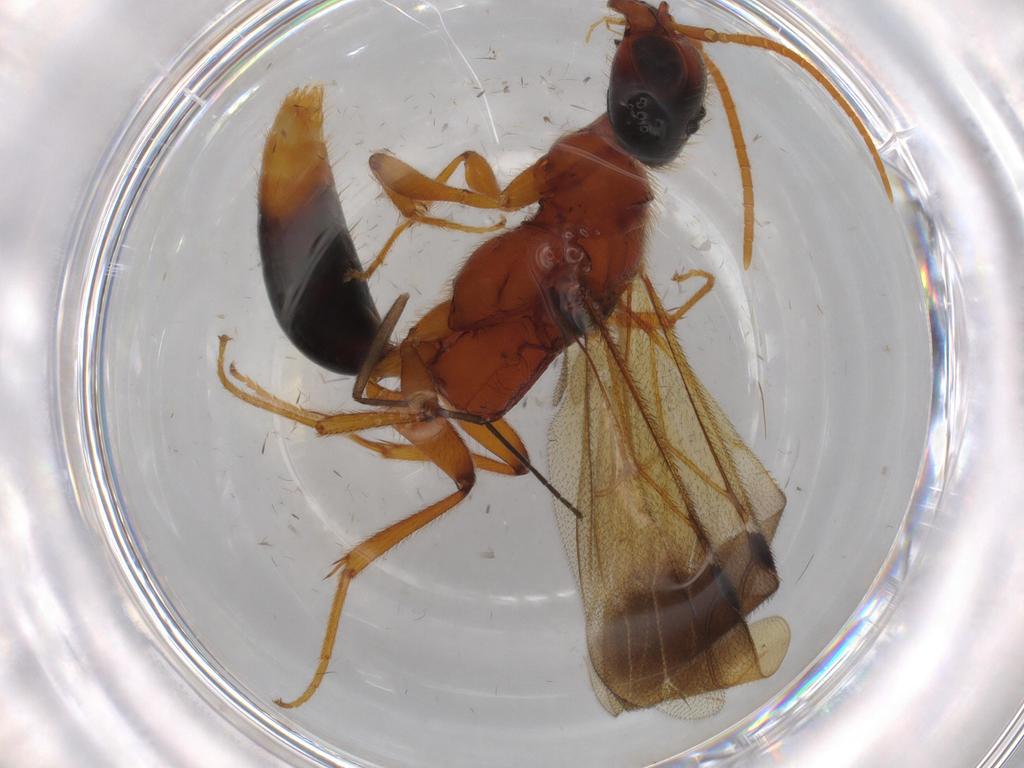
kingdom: Animalia
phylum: Arthropoda
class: Insecta
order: Hymenoptera
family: Bethylidae
